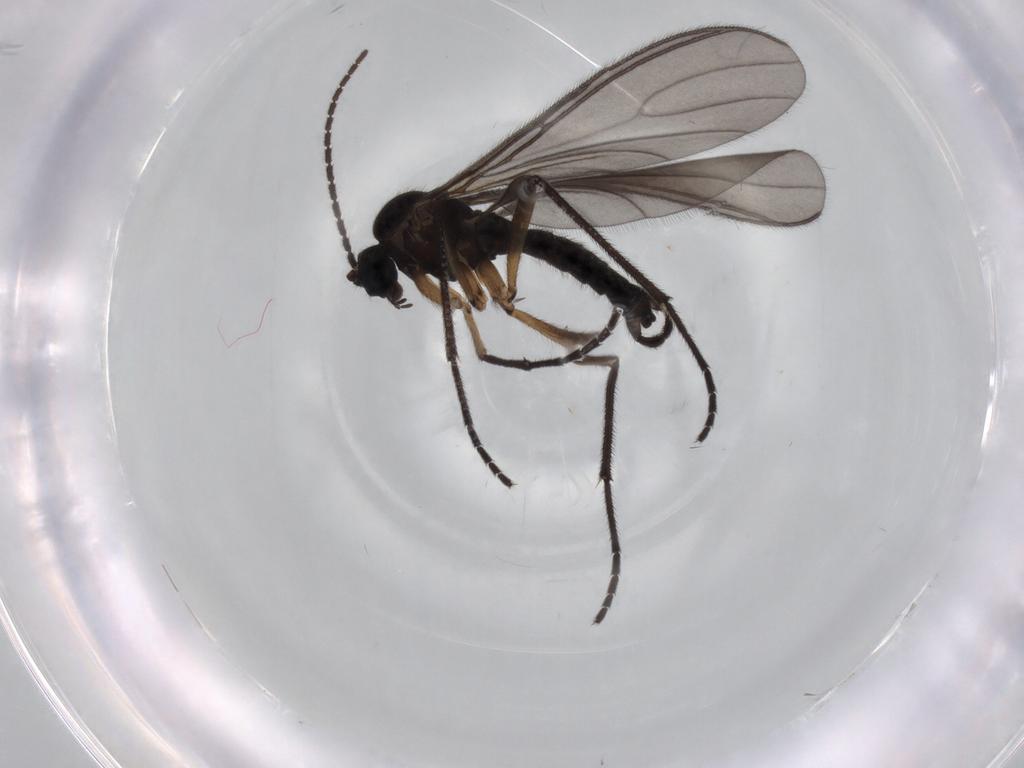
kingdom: Animalia
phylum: Arthropoda
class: Insecta
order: Diptera
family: Sciaridae
